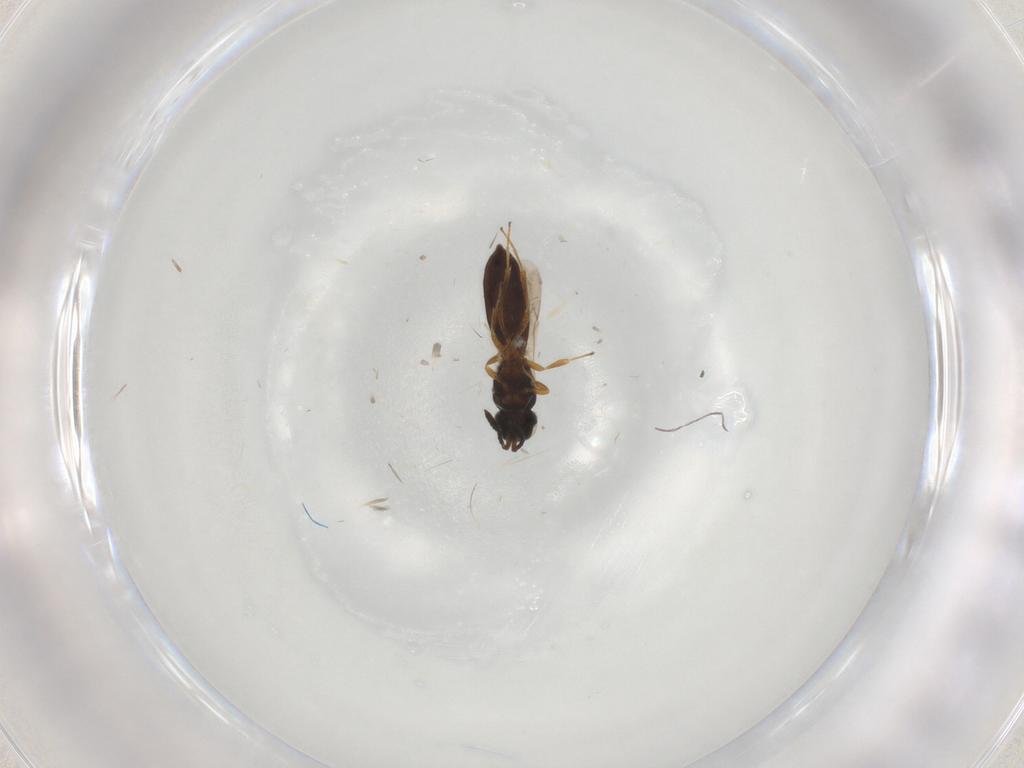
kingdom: Animalia
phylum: Arthropoda
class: Insecta
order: Hymenoptera
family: Scelionidae
